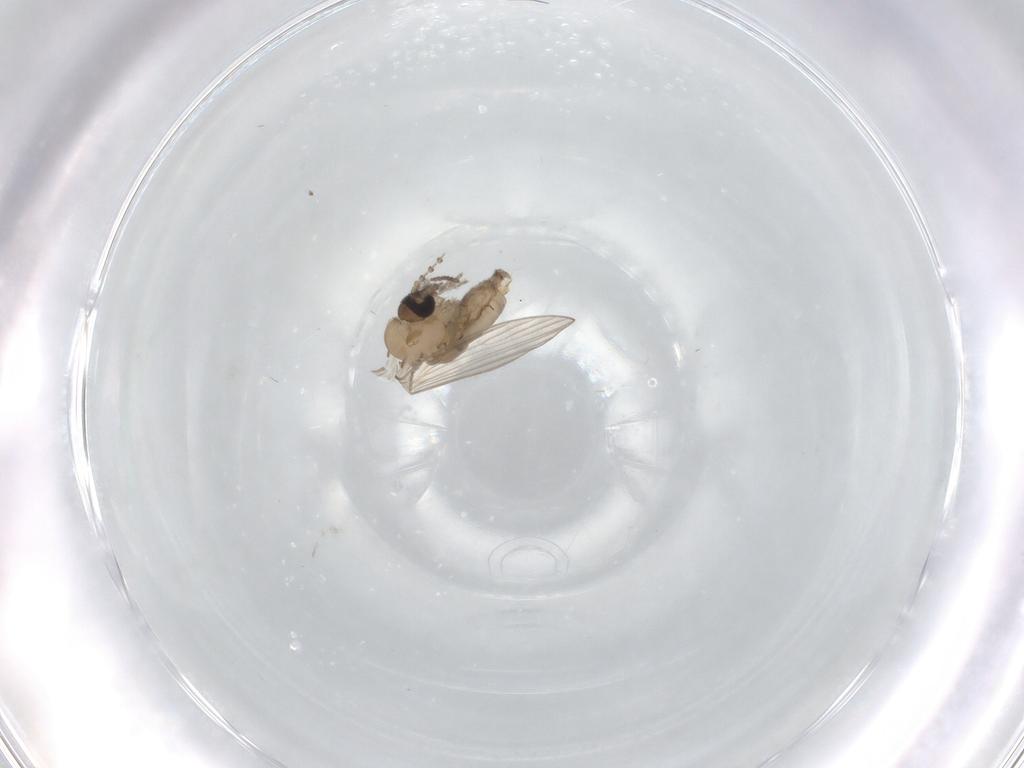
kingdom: Animalia
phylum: Arthropoda
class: Insecta
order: Diptera
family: Psychodidae
